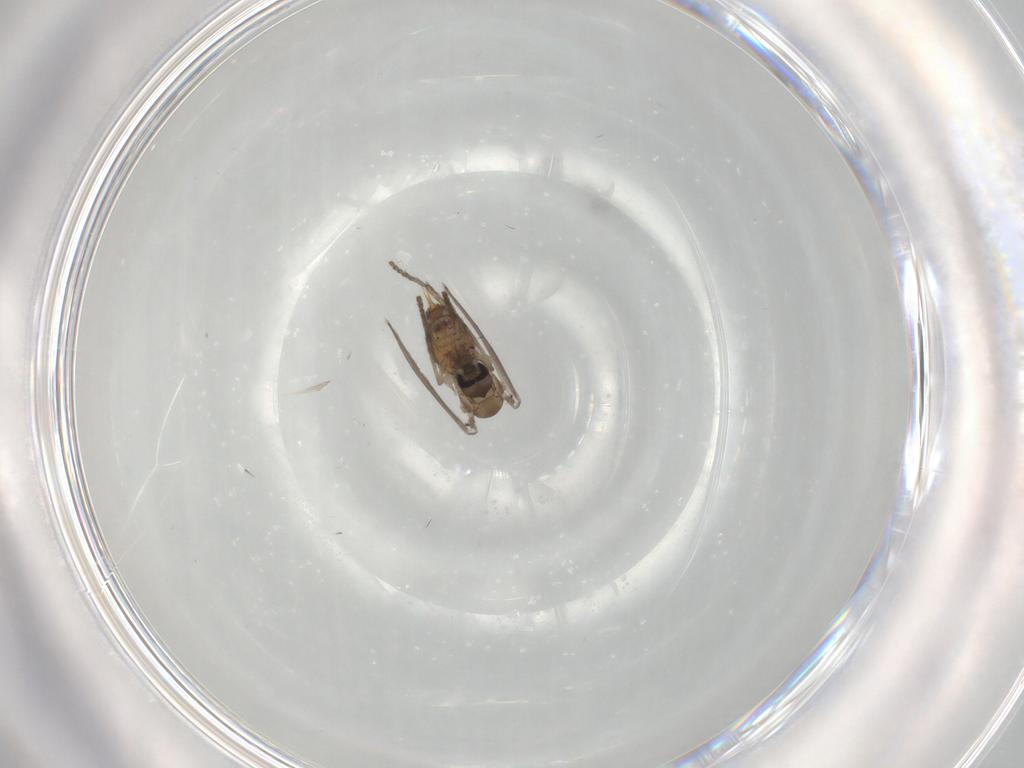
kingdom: Animalia
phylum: Arthropoda
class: Insecta
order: Diptera
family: Psychodidae
